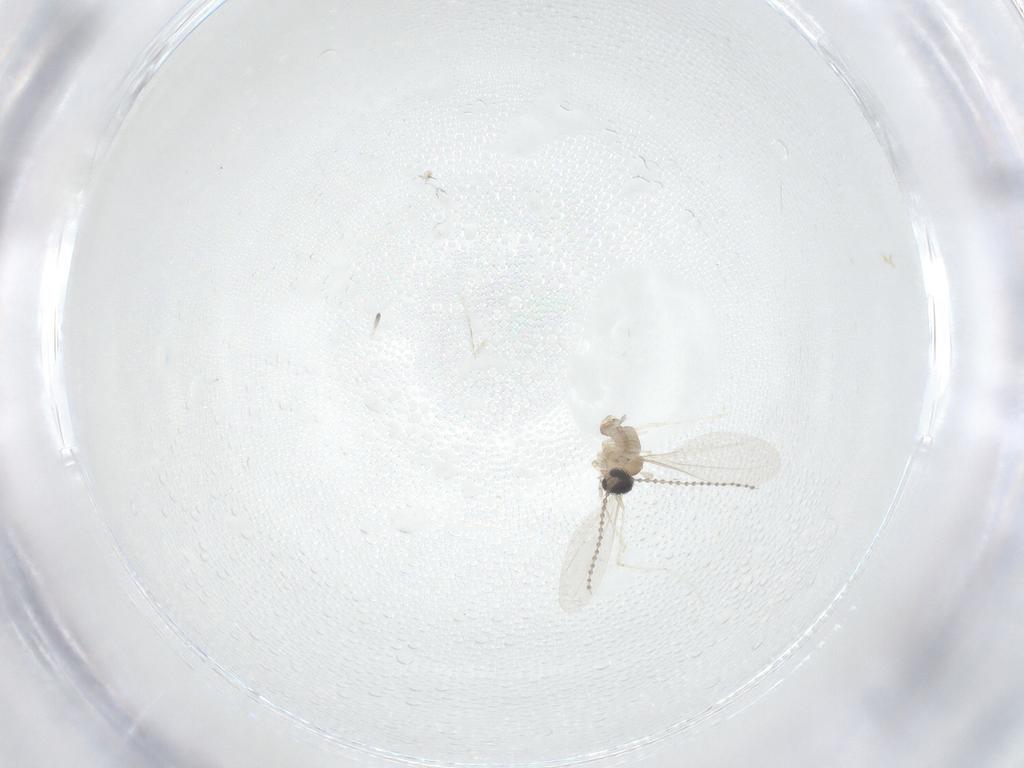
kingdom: Animalia
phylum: Arthropoda
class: Insecta
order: Diptera
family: Cecidomyiidae
